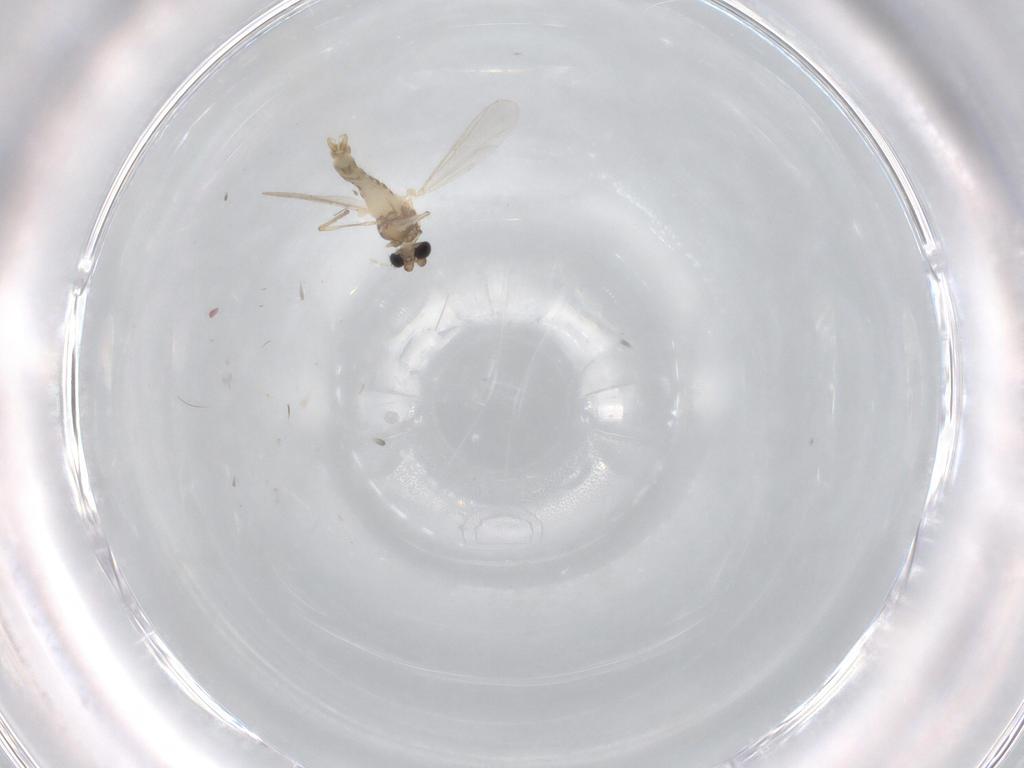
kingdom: Animalia
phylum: Arthropoda
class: Insecta
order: Diptera
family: Chironomidae
